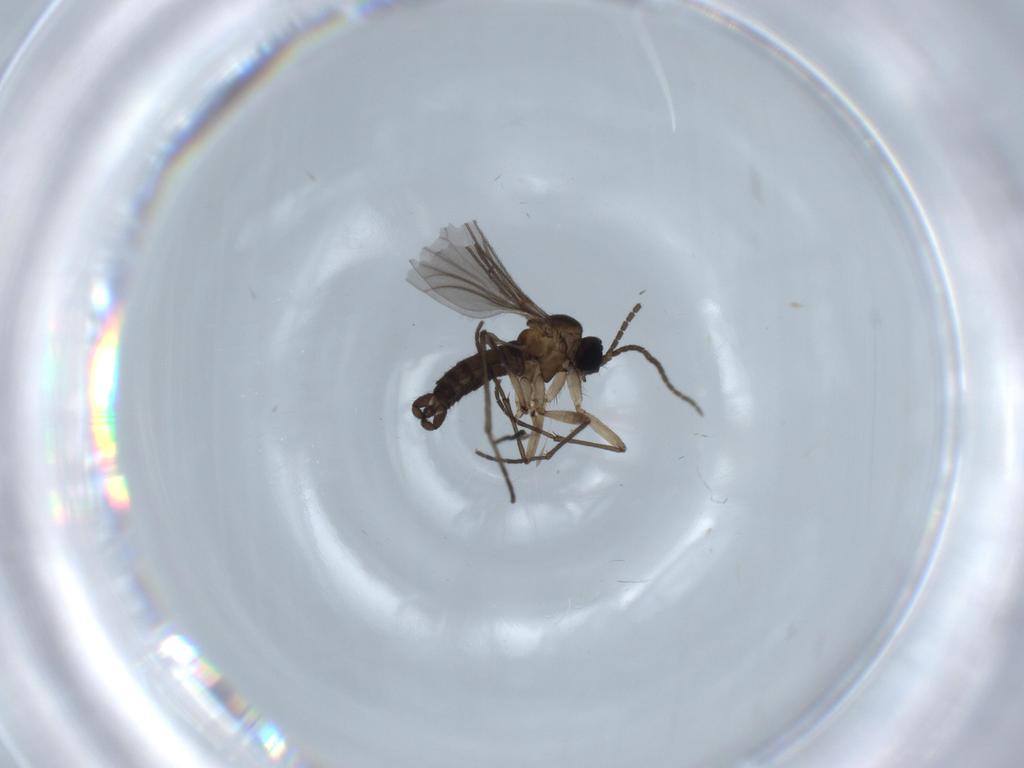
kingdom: Animalia
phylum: Arthropoda
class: Insecta
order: Diptera
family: Sciaridae
